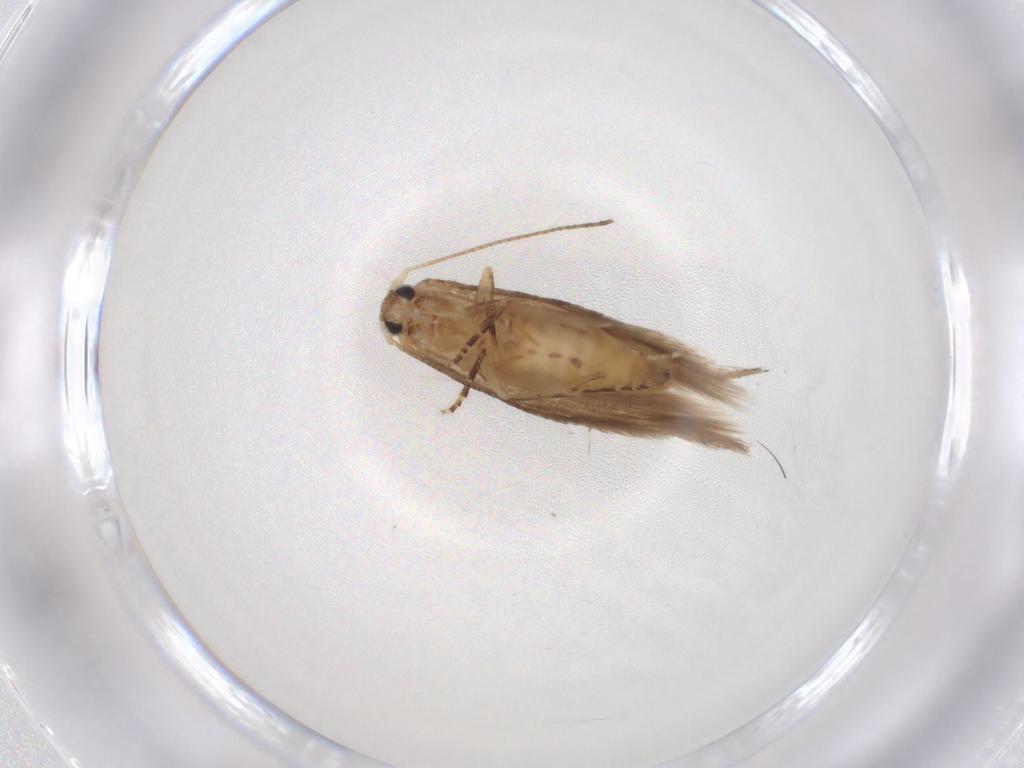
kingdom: Animalia
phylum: Arthropoda
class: Insecta
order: Lepidoptera
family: Bucculatricidae
